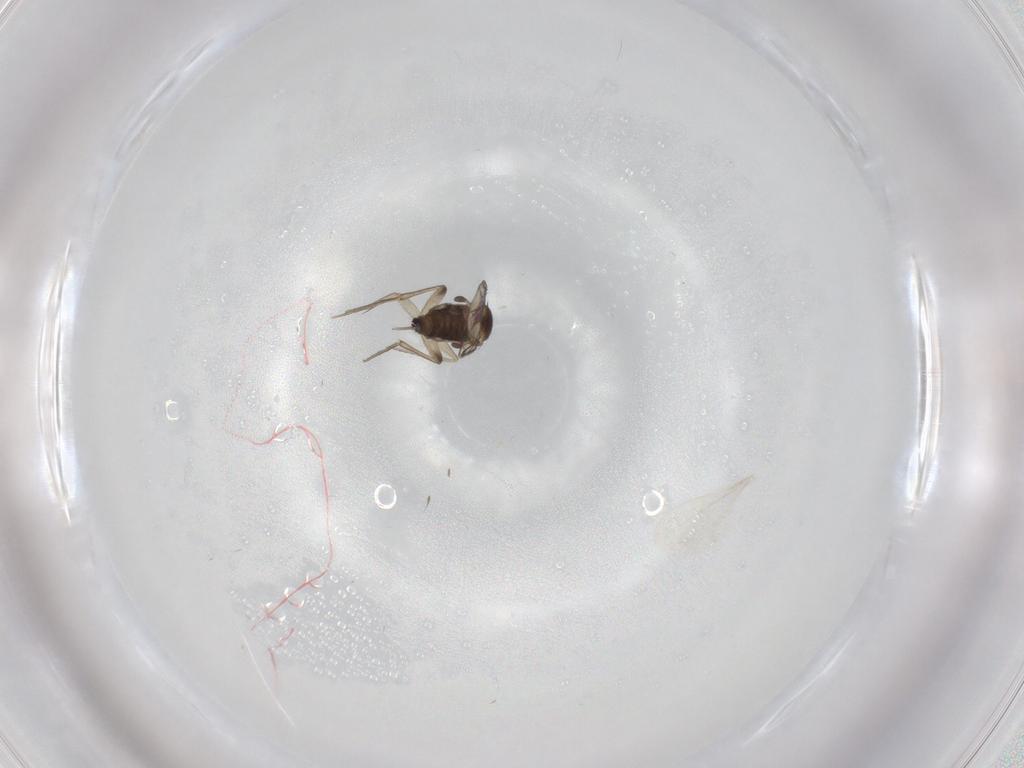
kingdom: Animalia
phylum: Arthropoda
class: Insecta
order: Diptera
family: Phoridae
